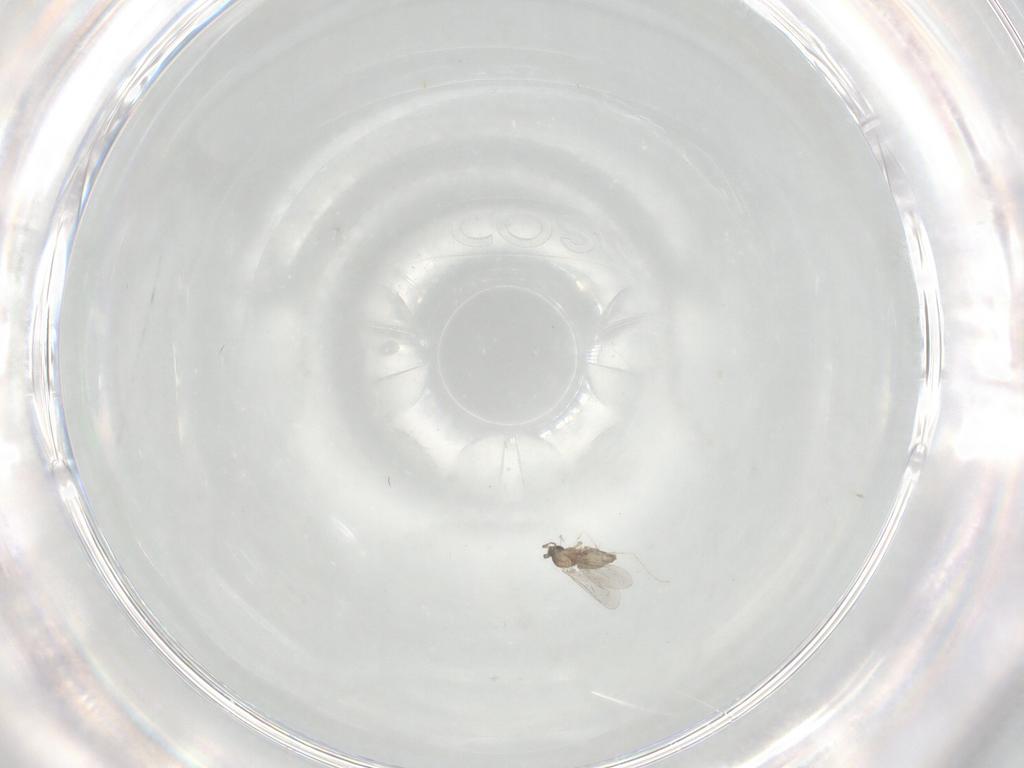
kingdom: Animalia
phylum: Arthropoda
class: Insecta
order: Diptera
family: Cecidomyiidae
